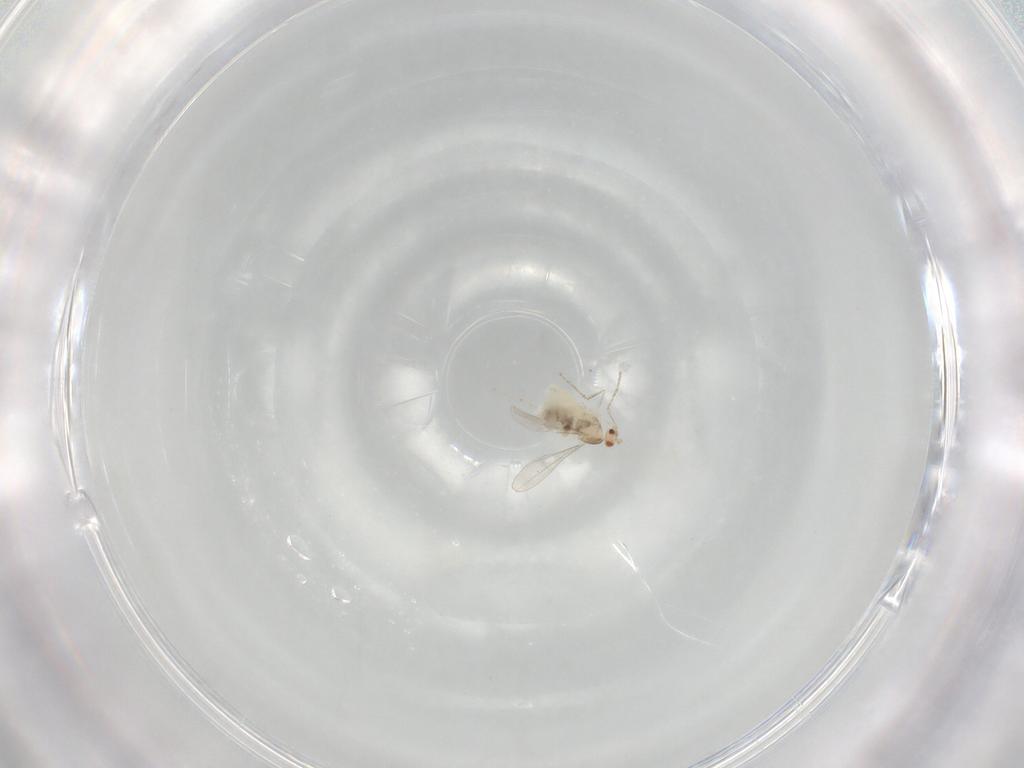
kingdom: Animalia
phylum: Arthropoda
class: Insecta
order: Diptera
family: Cecidomyiidae
